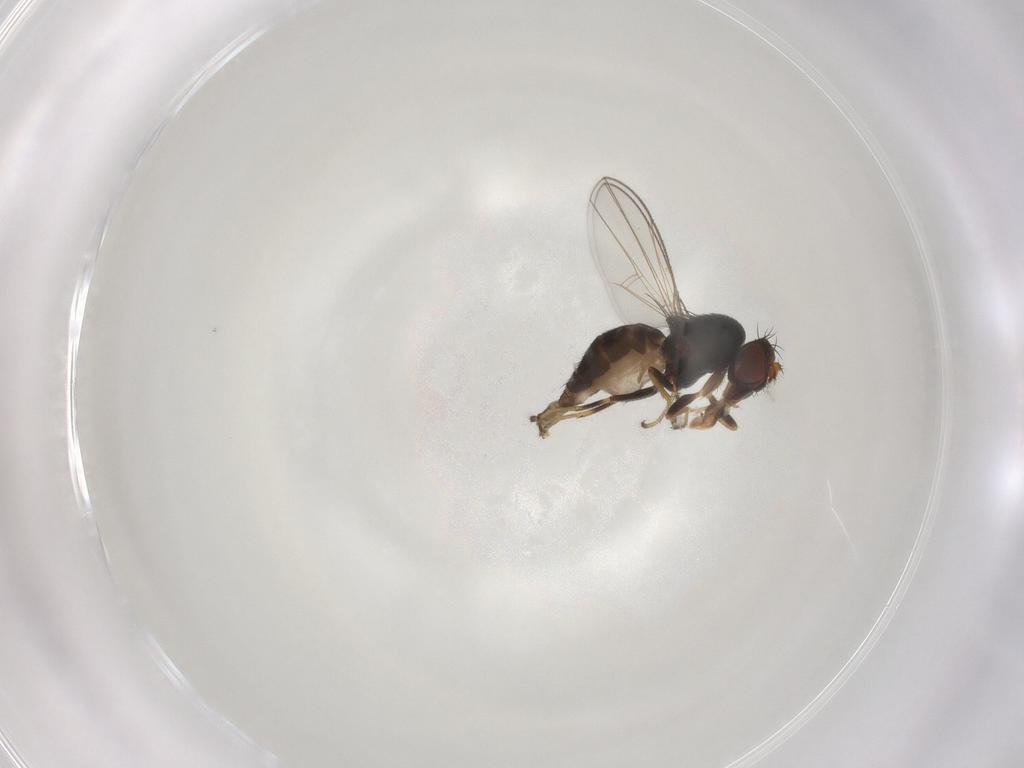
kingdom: Animalia
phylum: Arthropoda
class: Insecta
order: Diptera
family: Ephydridae
